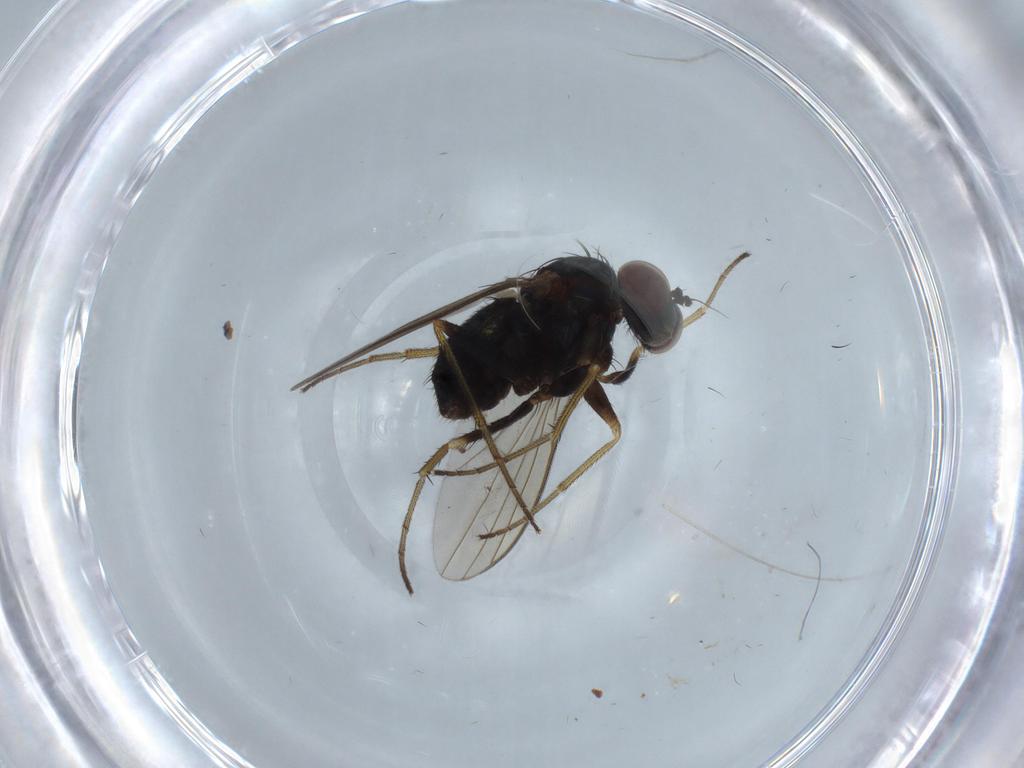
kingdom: Animalia
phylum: Arthropoda
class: Insecta
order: Diptera
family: Dolichopodidae
